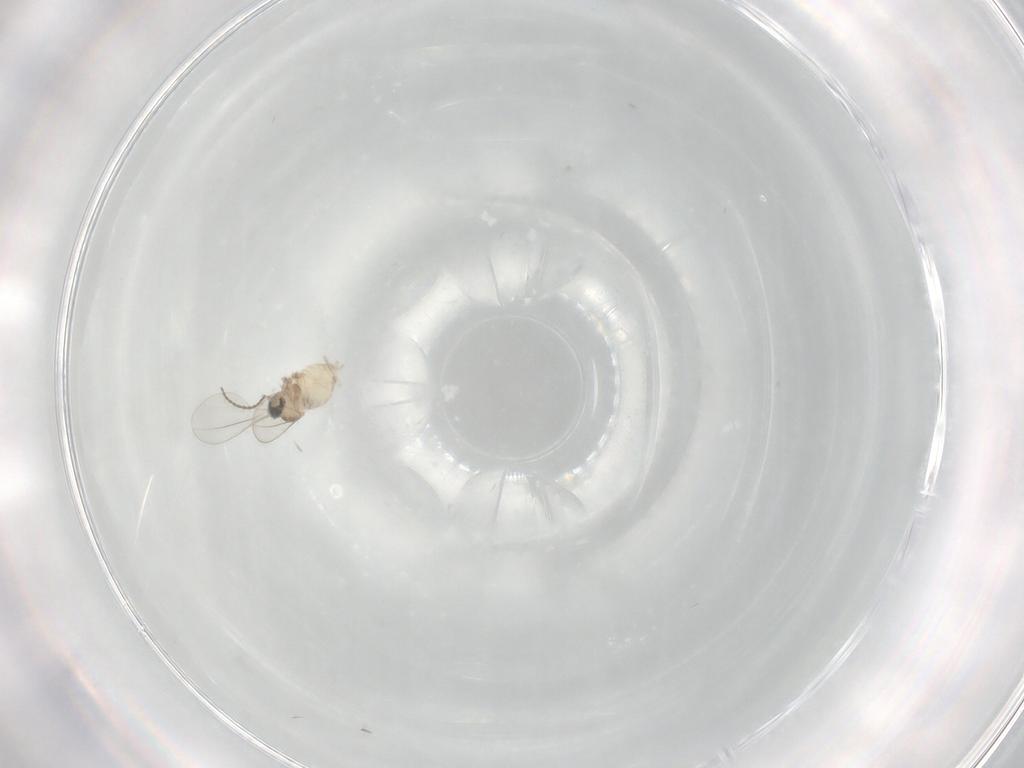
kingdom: Animalia
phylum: Arthropoda
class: Insecta
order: Diptera
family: Cecidomyiidae
